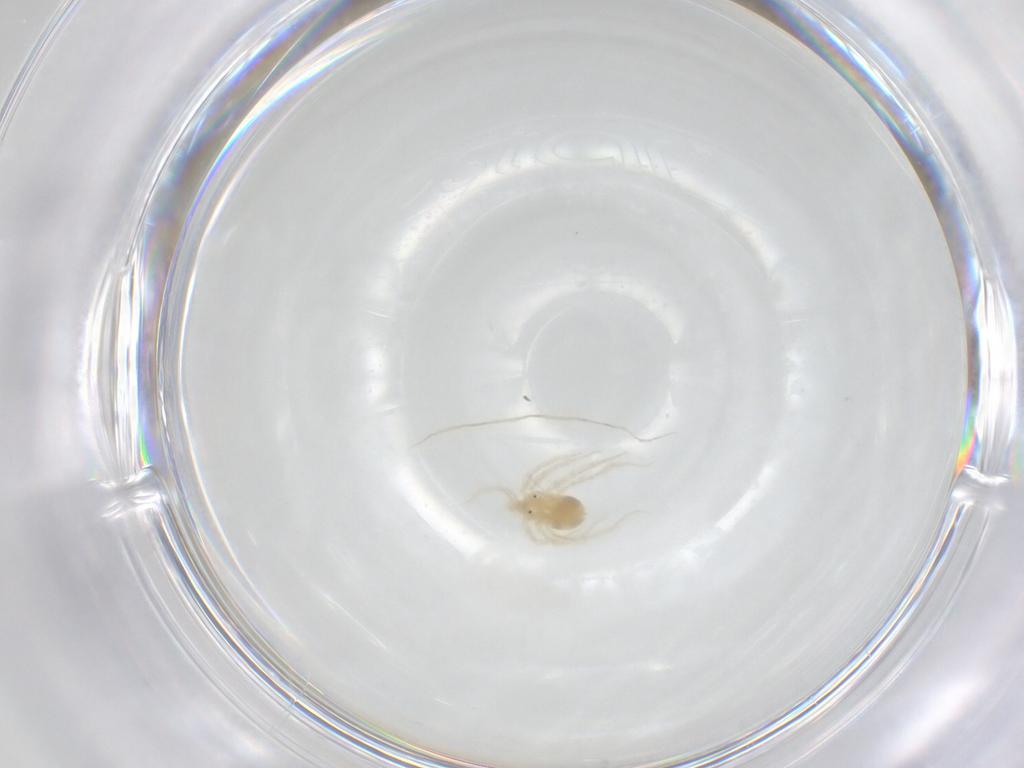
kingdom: Animalia
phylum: Arthropoda
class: Arachnida
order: Trombidiformes
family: Anystidae
